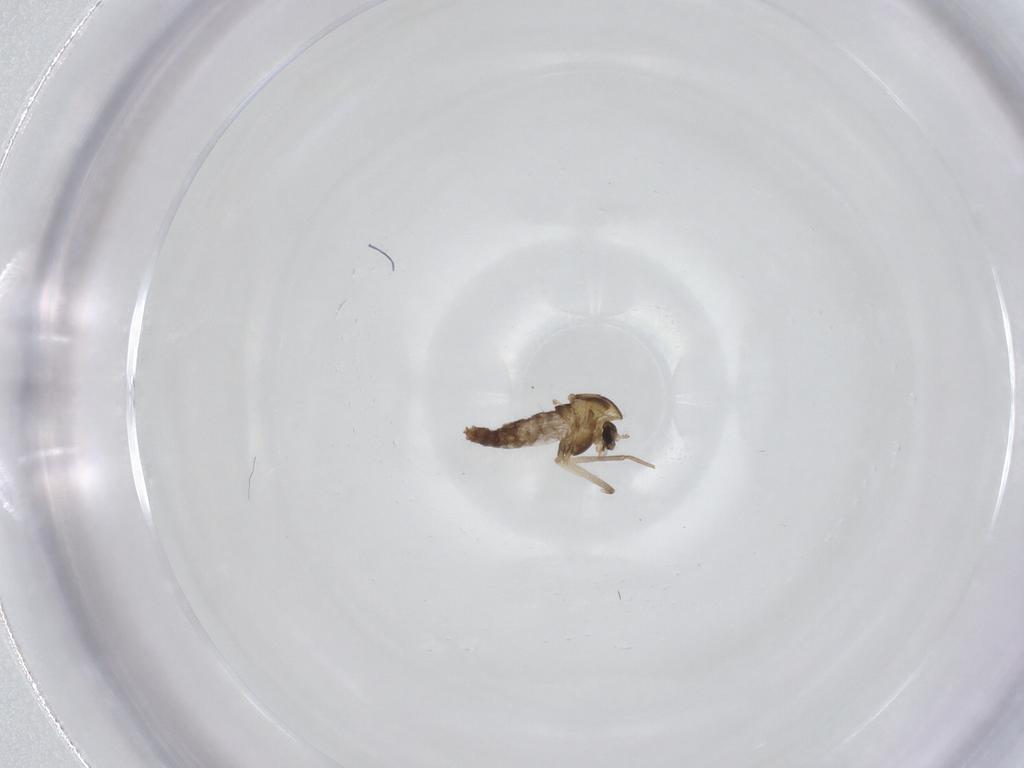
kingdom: Animalia
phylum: Arthropoda
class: Insecta
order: Diptera
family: Chironomidae
